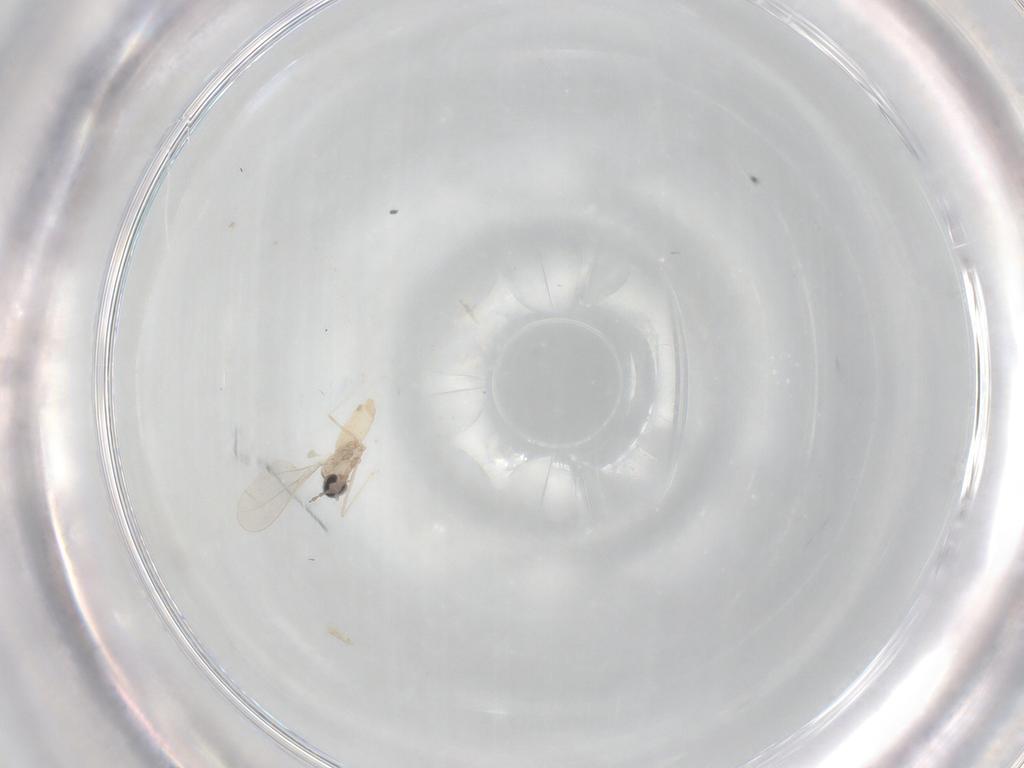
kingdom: Animalia
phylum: Arthropoda
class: Insecta
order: Diptera
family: Cecidomyiidae
